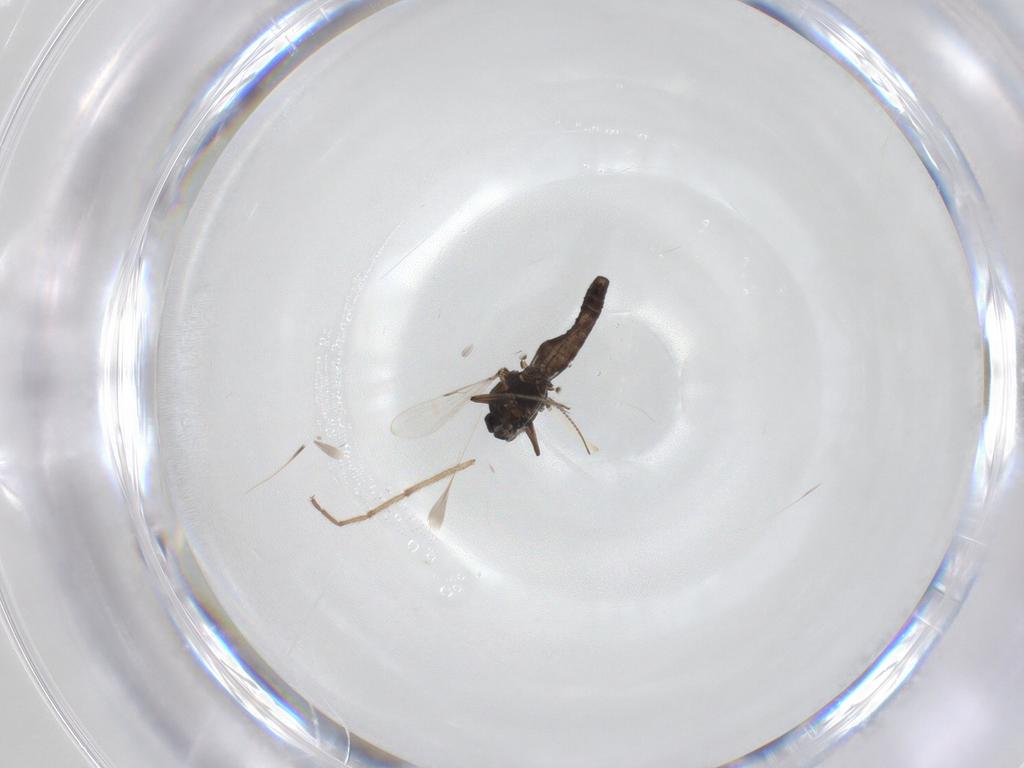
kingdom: Animalia
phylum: Arthropoda
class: Insecta
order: Diptera
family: Ceratopogonidae
